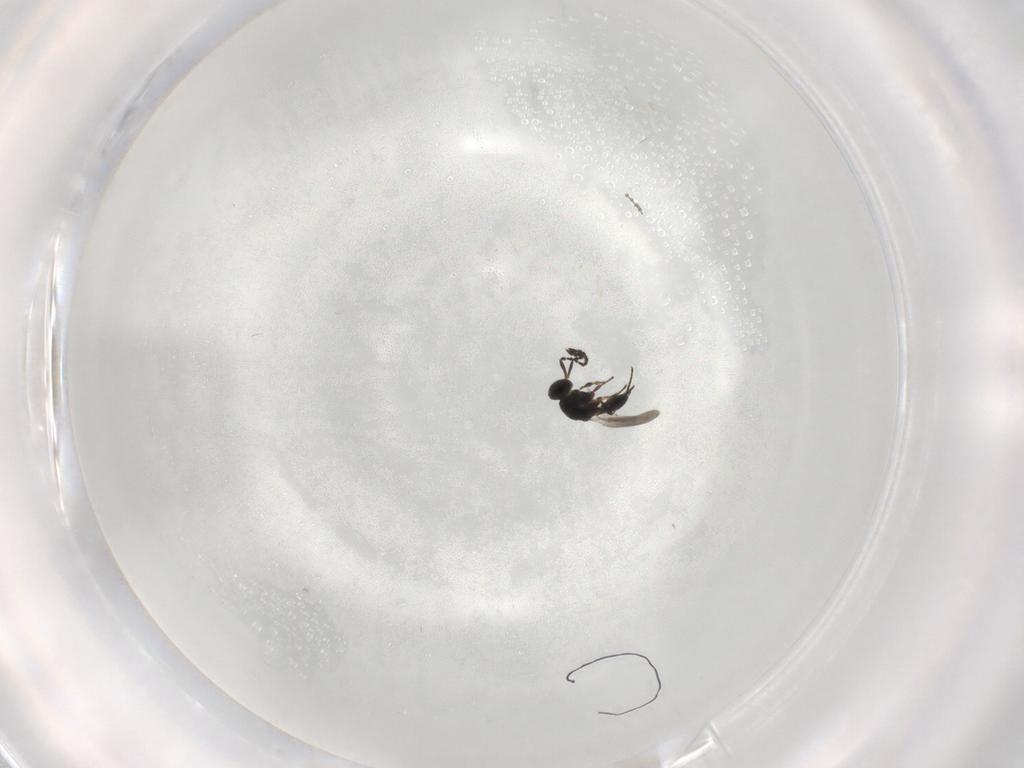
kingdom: Animalia
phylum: Arthropoda
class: Insecta
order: Hymenoptera
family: Platygastridae
